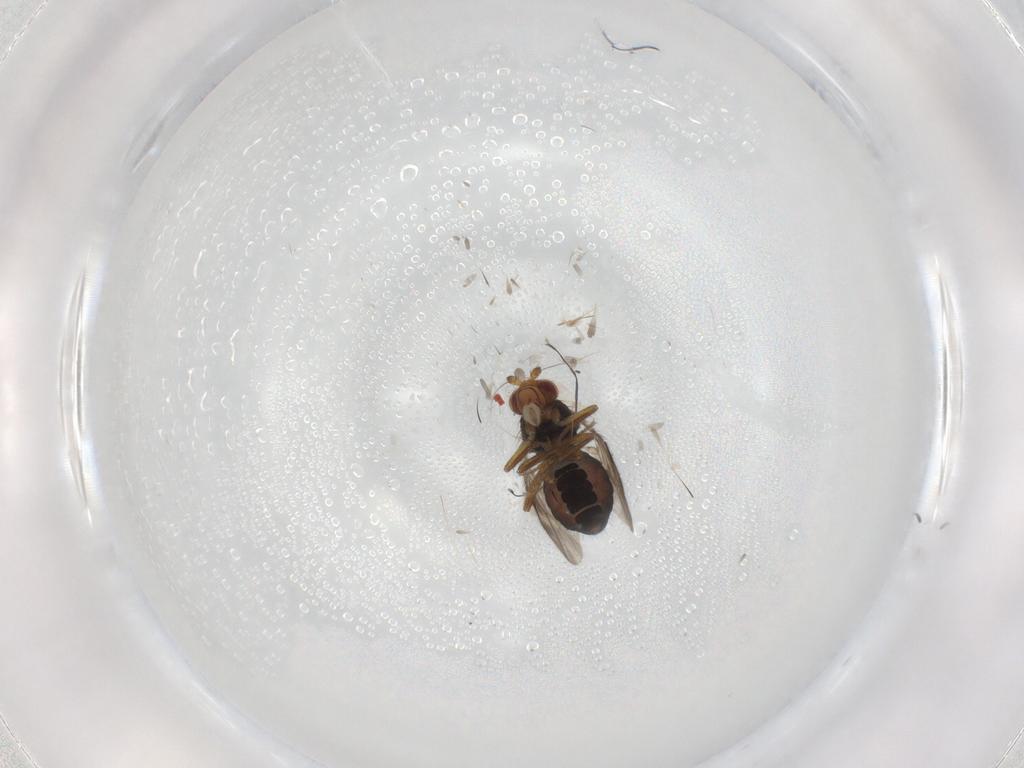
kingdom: Animalia
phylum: Arthropoda
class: Insecta
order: Diptera
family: Sphaeroceridae
